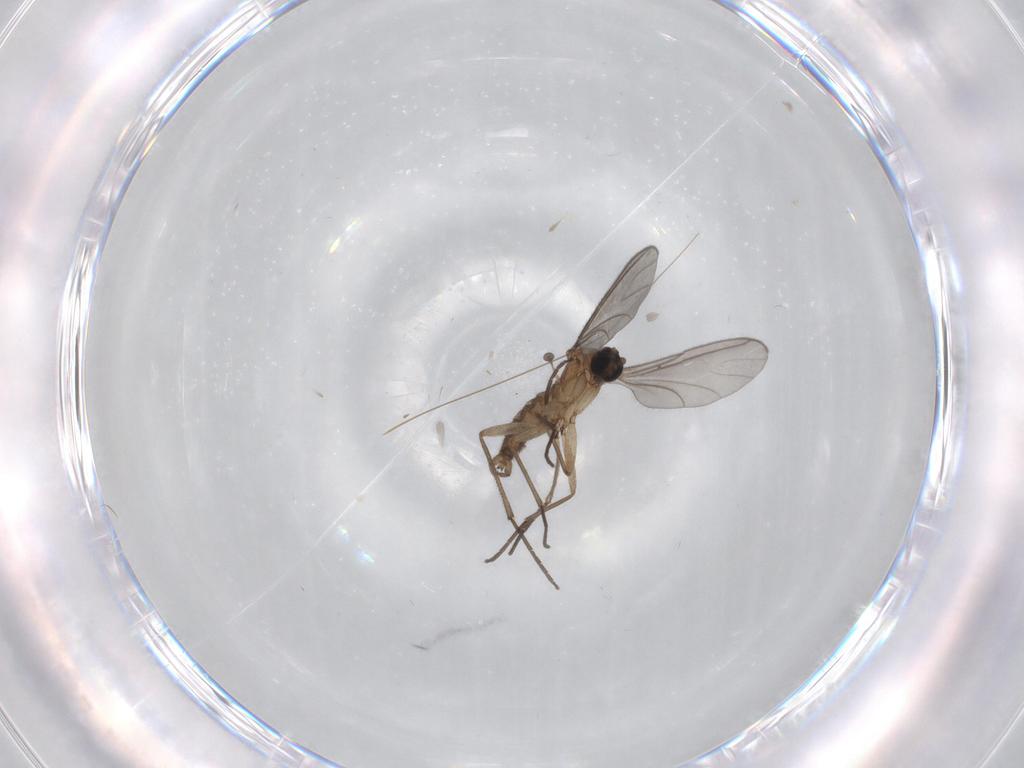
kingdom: Animalia
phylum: Arthropoda
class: Insecta
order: Diptera
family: Sciaridae
